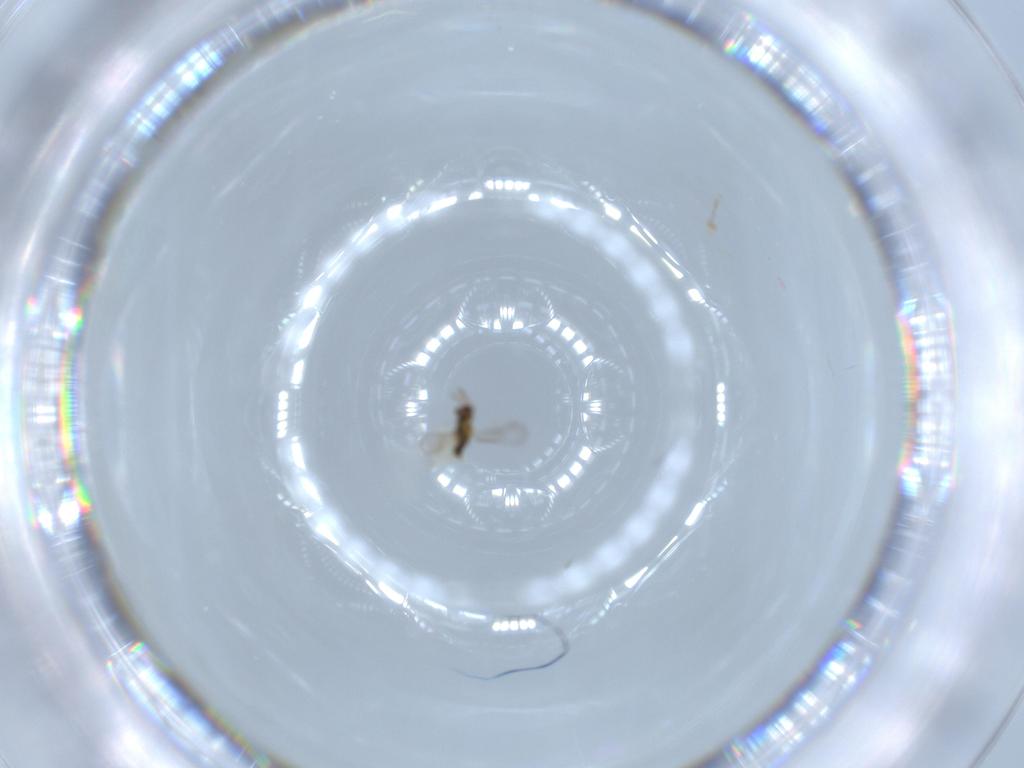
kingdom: Animalia
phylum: Arthropoda
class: Insecta
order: Hymenoptera
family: Aphelinidae
